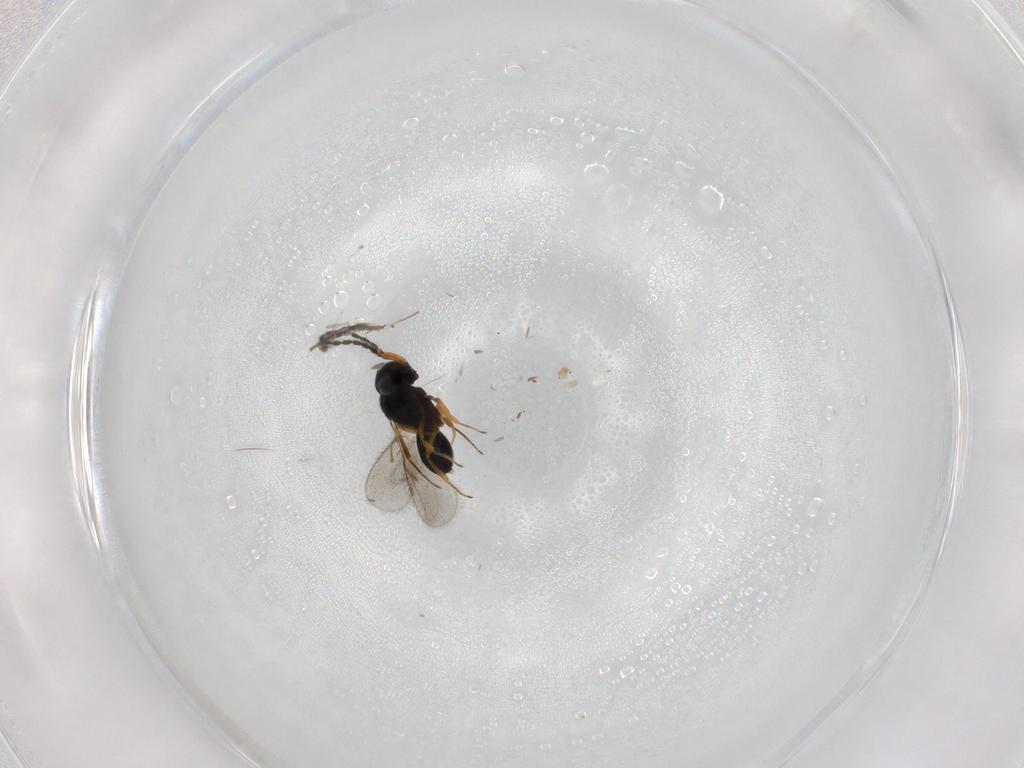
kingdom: Animalia
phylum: Arthropoda
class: Insecta
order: Hymenoptera
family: Scelionidae
